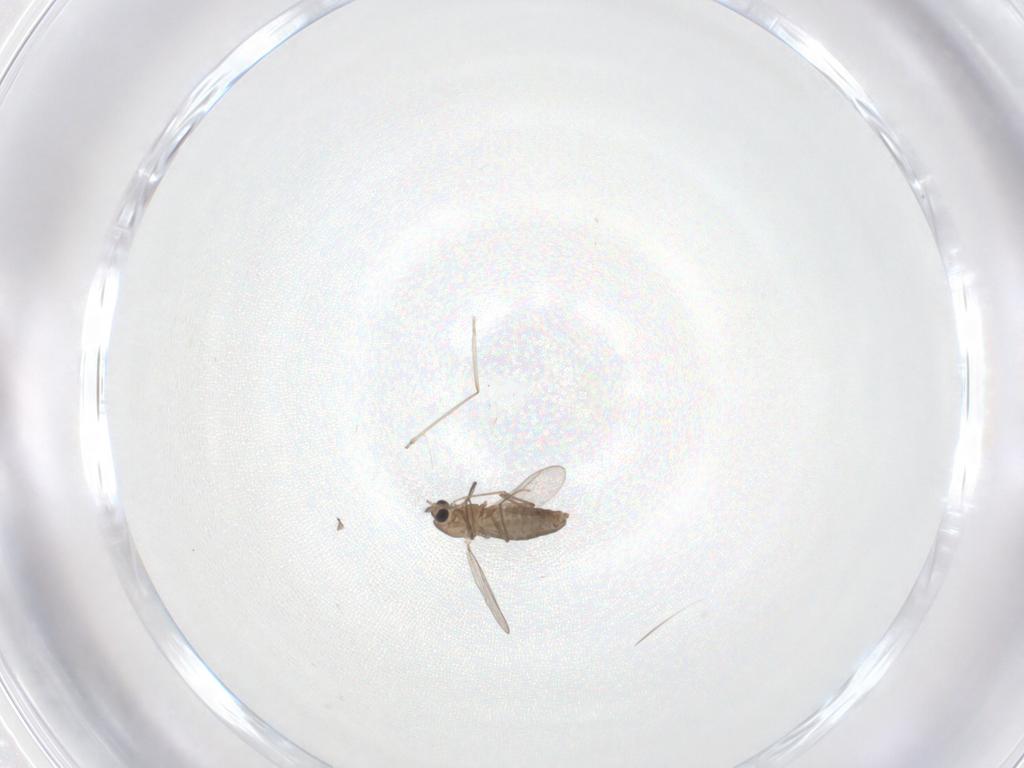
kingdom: Animalia
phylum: Arthropoda
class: Insecta
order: Diptera
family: Chironomidae
